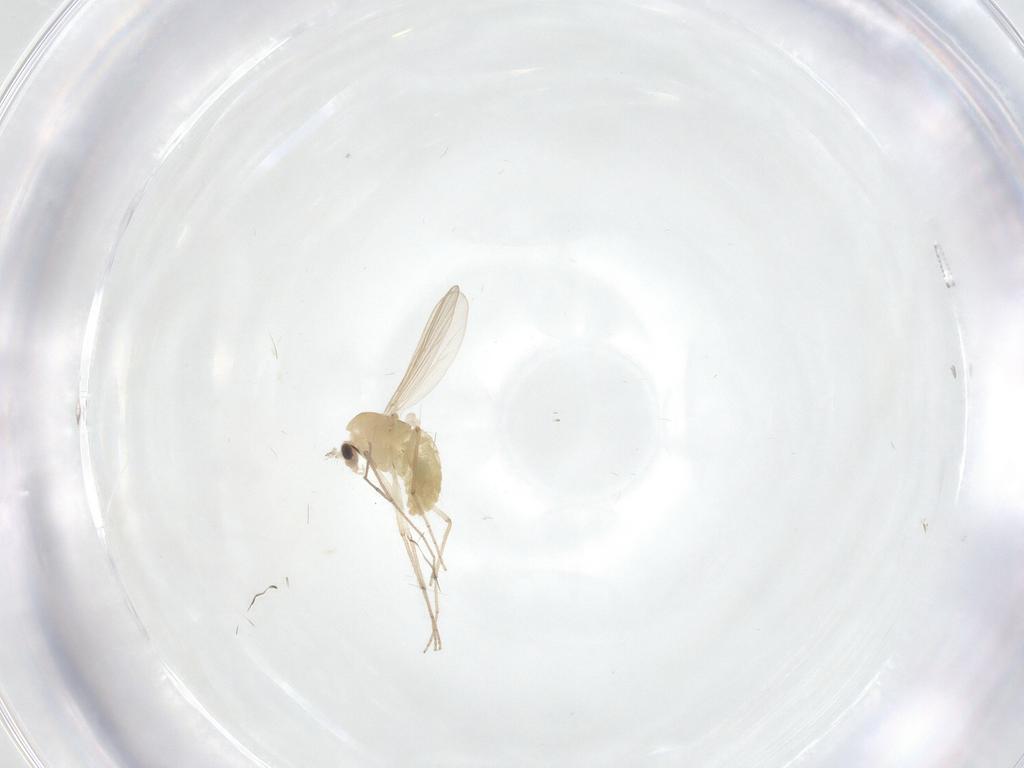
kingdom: Animalia
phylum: Arthropoda
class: Insecta
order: Diptera
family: Chironomidae
